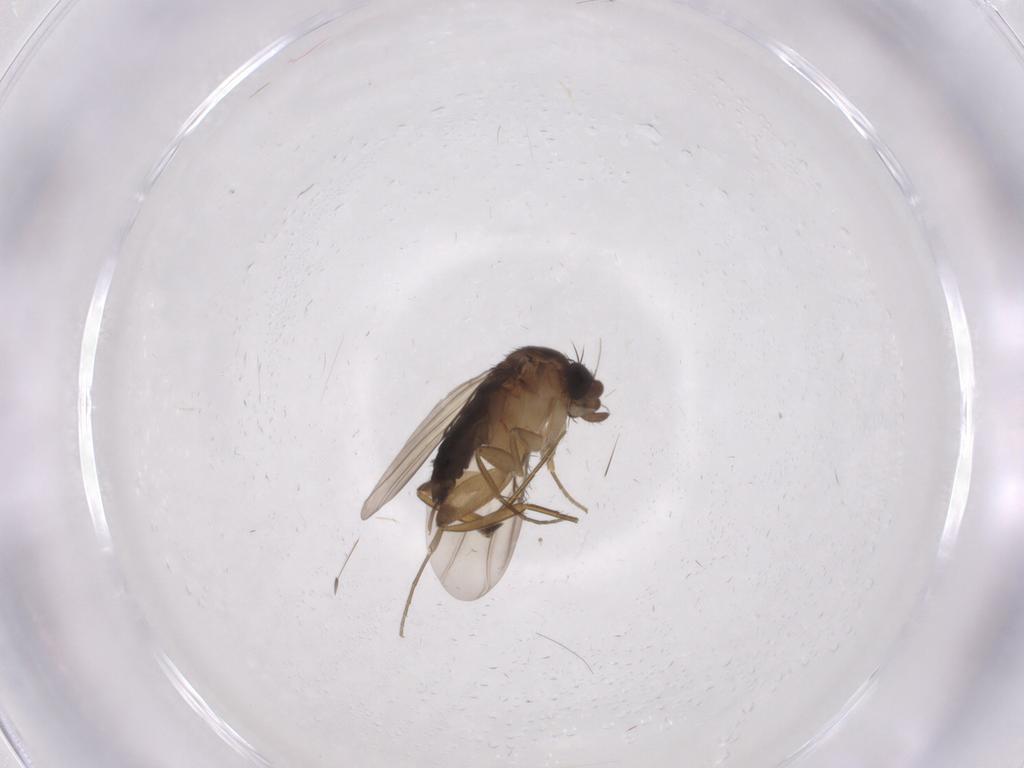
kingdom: Animalia
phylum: Arthropoda
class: Insecta
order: Diptera
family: Phoridae
